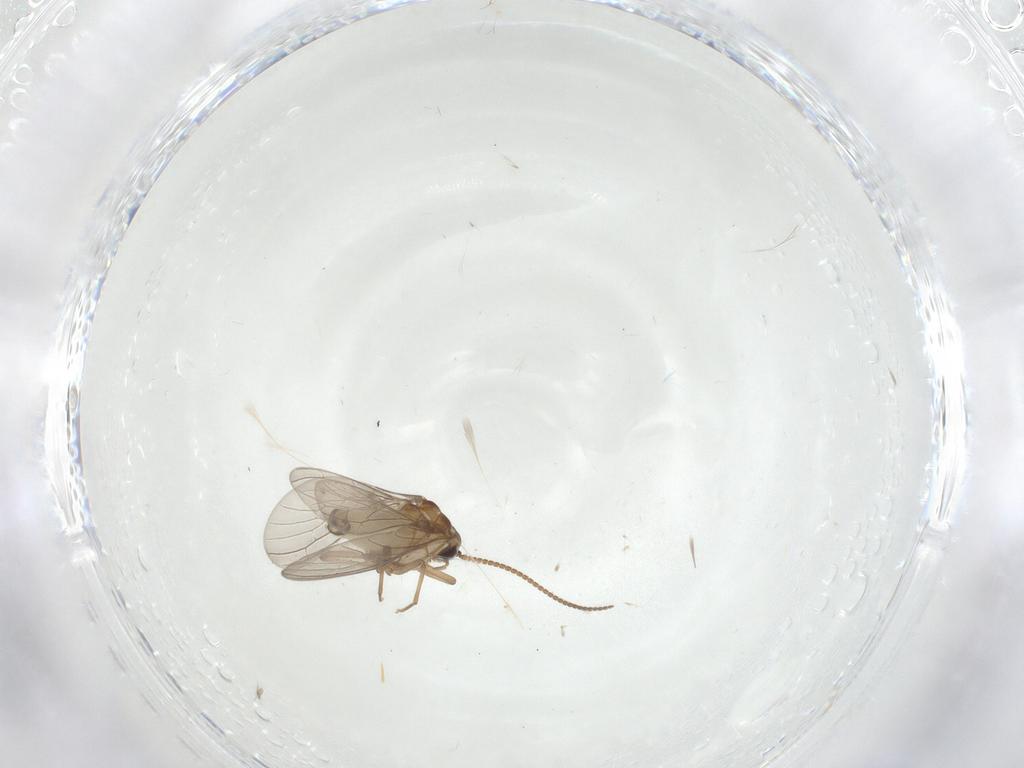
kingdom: Animalia
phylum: Arthropoda
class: Insecta
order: Neuroptera
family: Coniopterygidae
